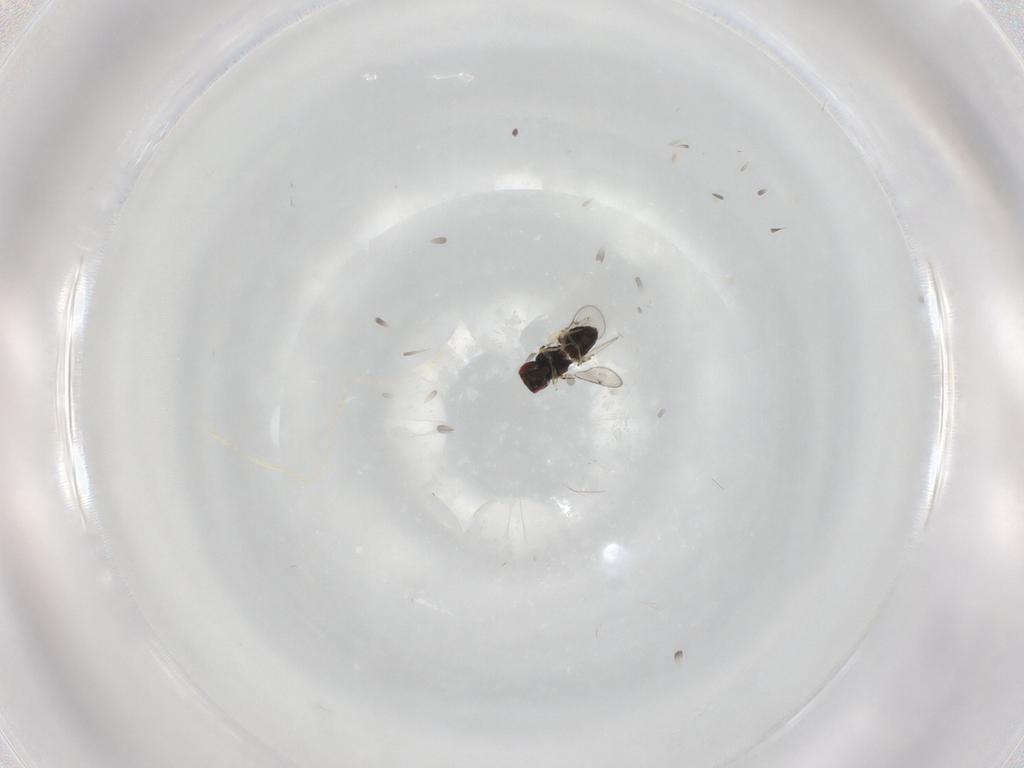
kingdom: Animalia
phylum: Arthropoda
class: Insecta
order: Hymenoptera
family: Eulophidae
